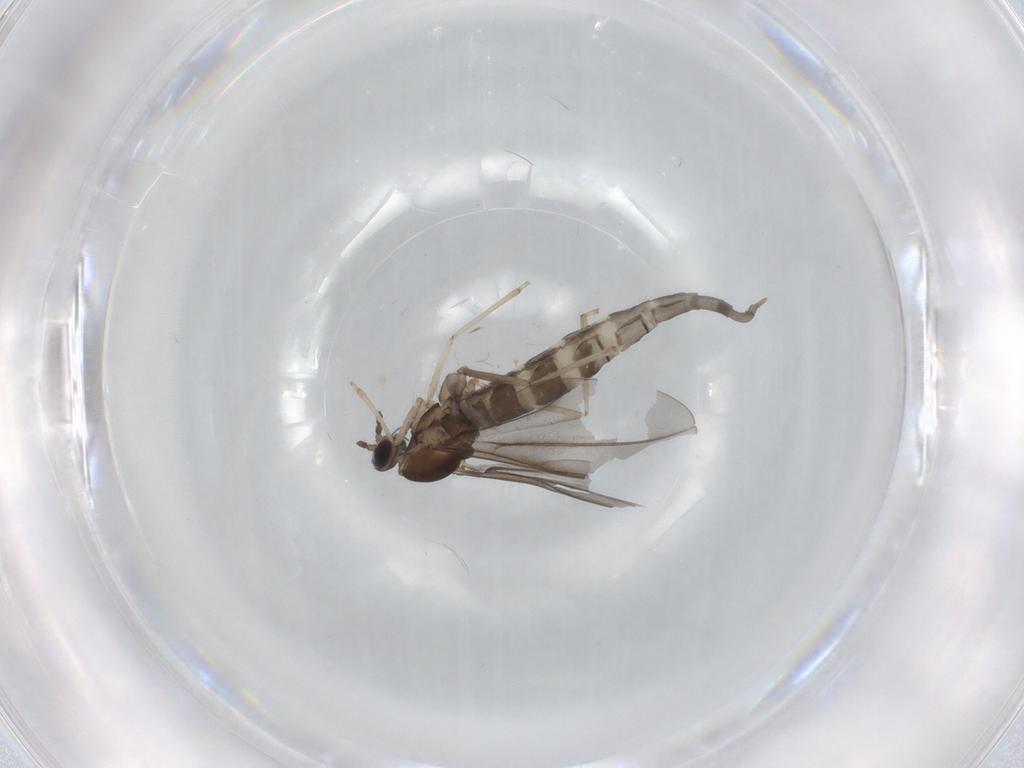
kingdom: Animalia
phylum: Arthropoda
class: Insecta
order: Diptera
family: Cecidomyiidae
